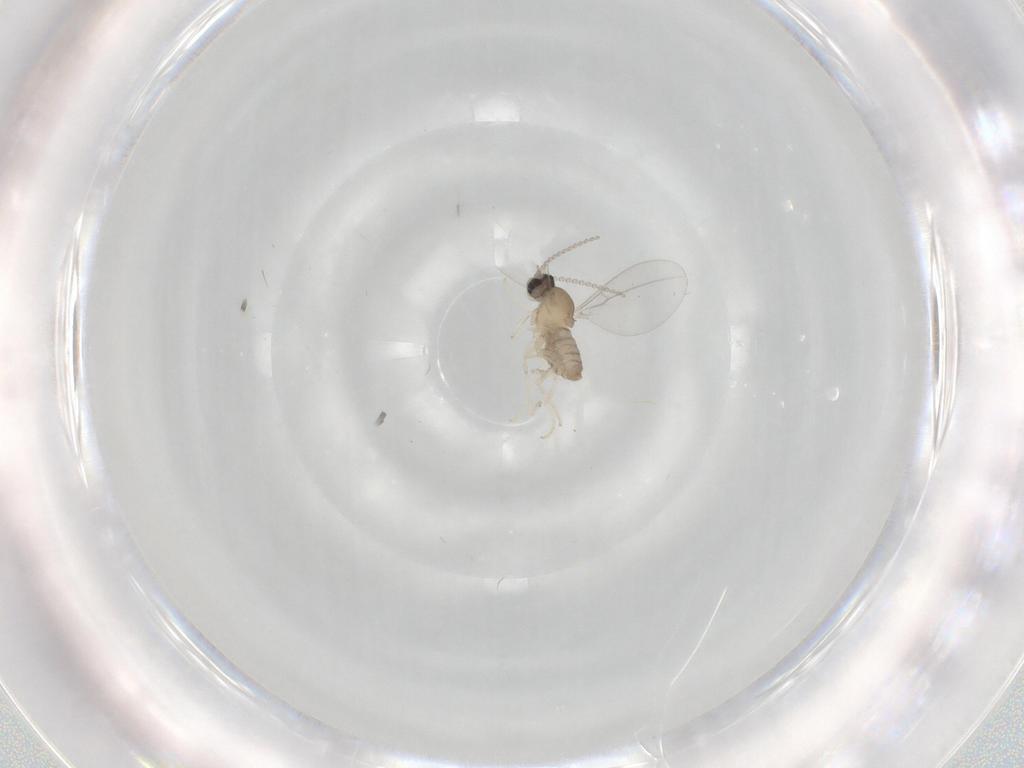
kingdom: Animalia
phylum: Arthropoda
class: Insecta
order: Diptera
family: Cecidomyiidae
